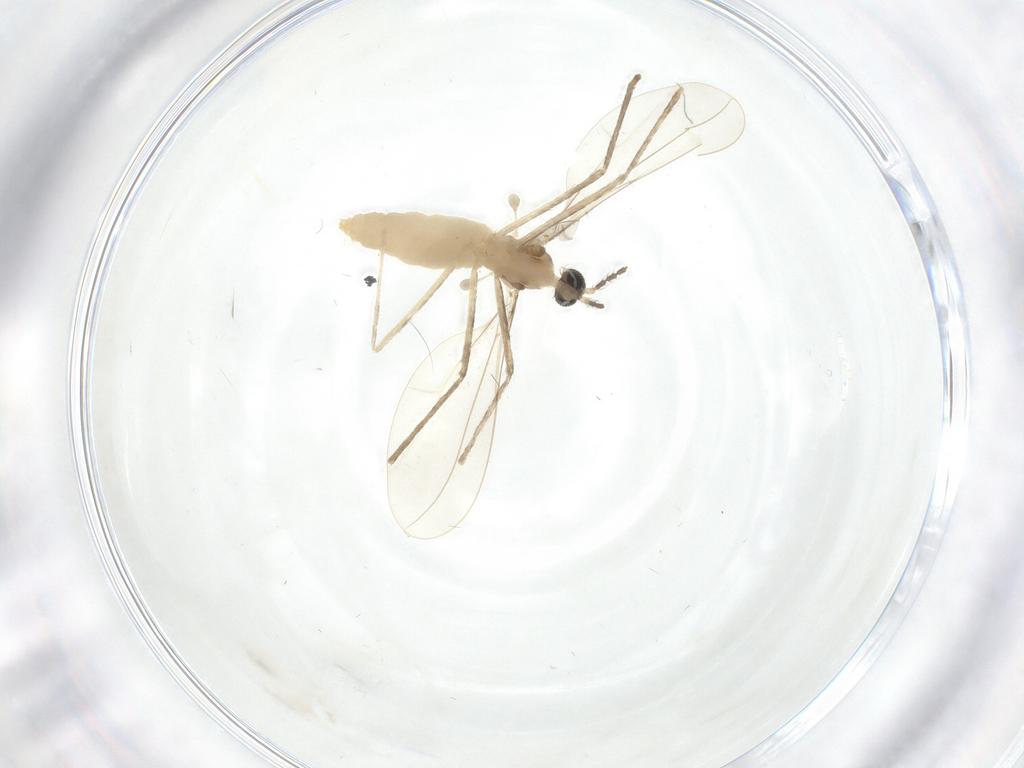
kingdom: Animalia
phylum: Arthropoda
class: Insecta
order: Diptera
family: Cecidomyiidae
